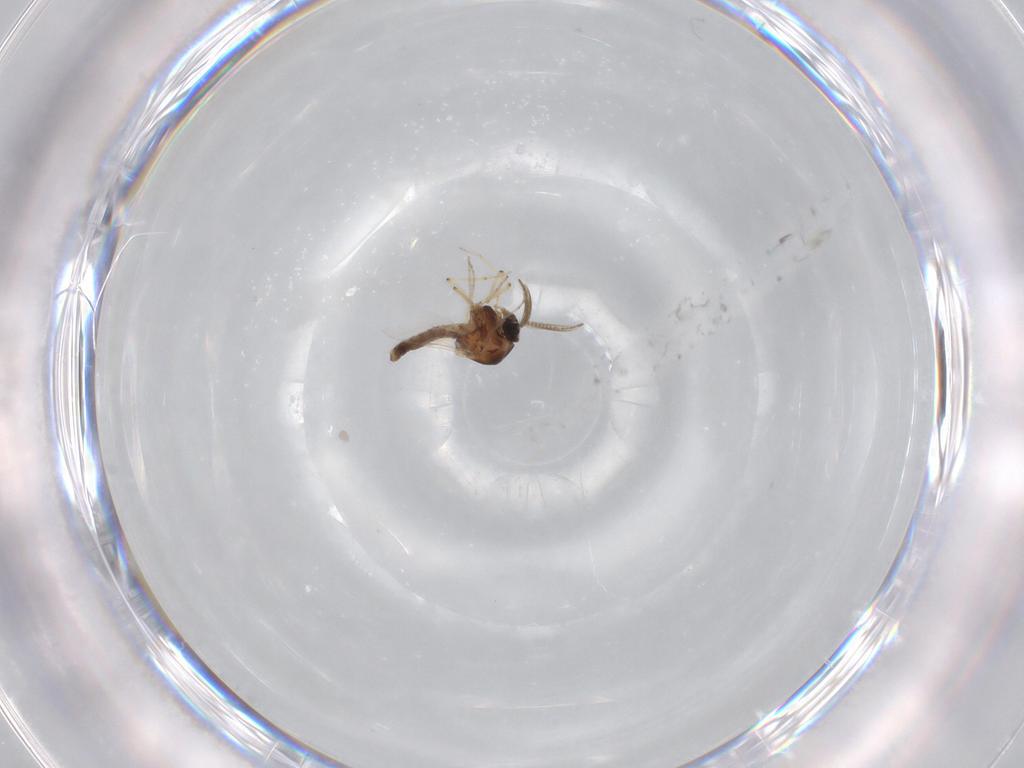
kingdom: Animalia
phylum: Arthropoda
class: Insecta
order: Diptera
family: Ceratopogonidae
